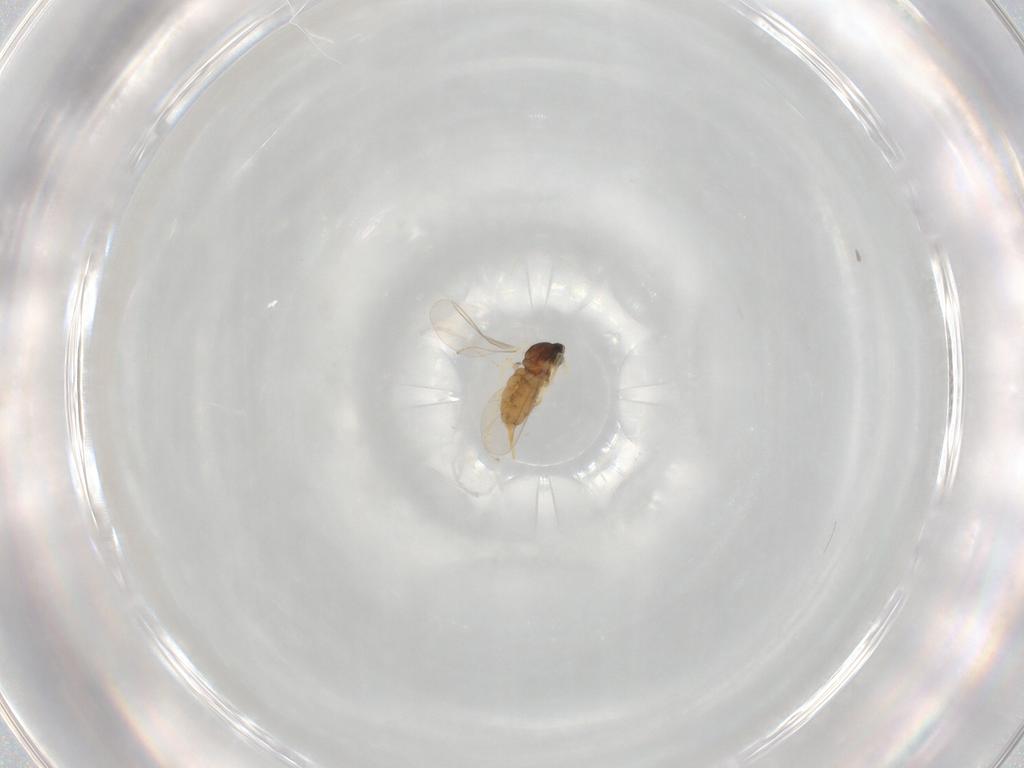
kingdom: Animalia
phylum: Arthropoda
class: Insecta
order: Diptera
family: Cecidomyiidae
